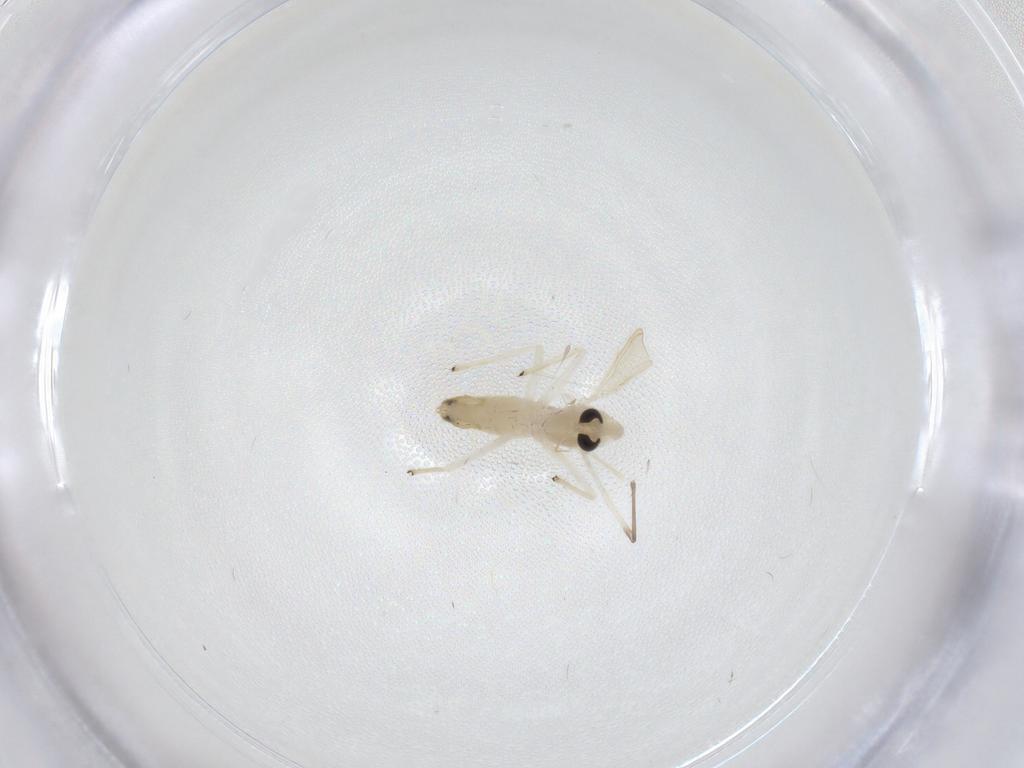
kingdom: Animalia
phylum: Arthropoda
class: Insecta
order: Diptera
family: Chironomidae
